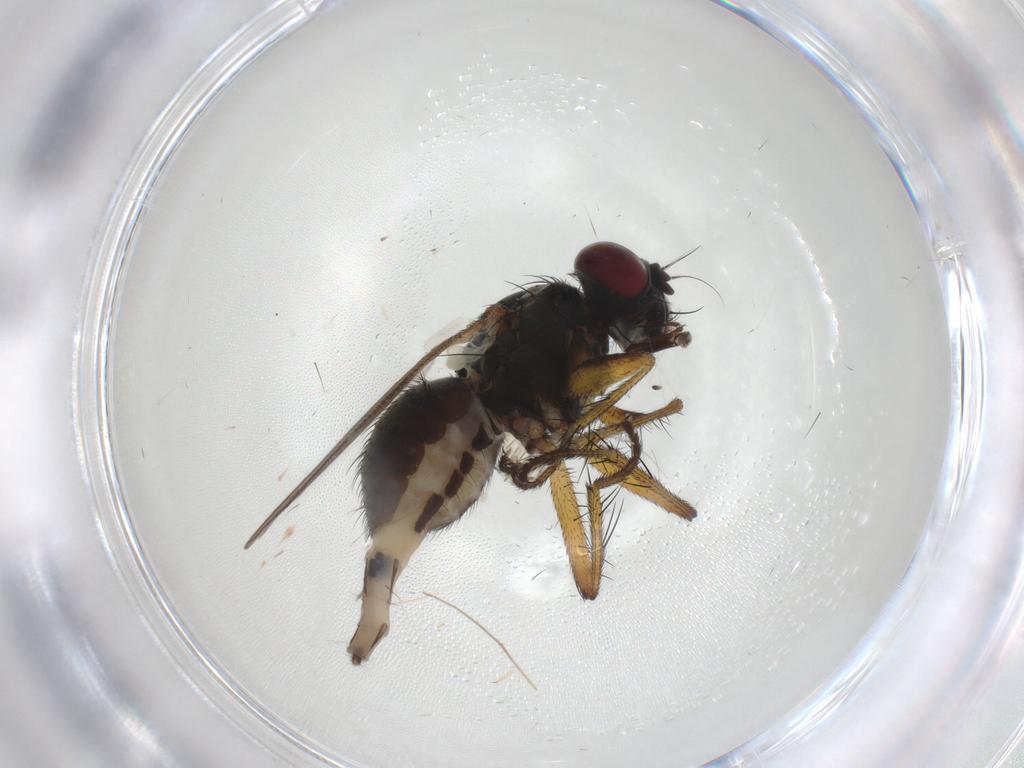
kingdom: Animalia
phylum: Arthropoda
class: Insecta
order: Diptera
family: Muscidae
